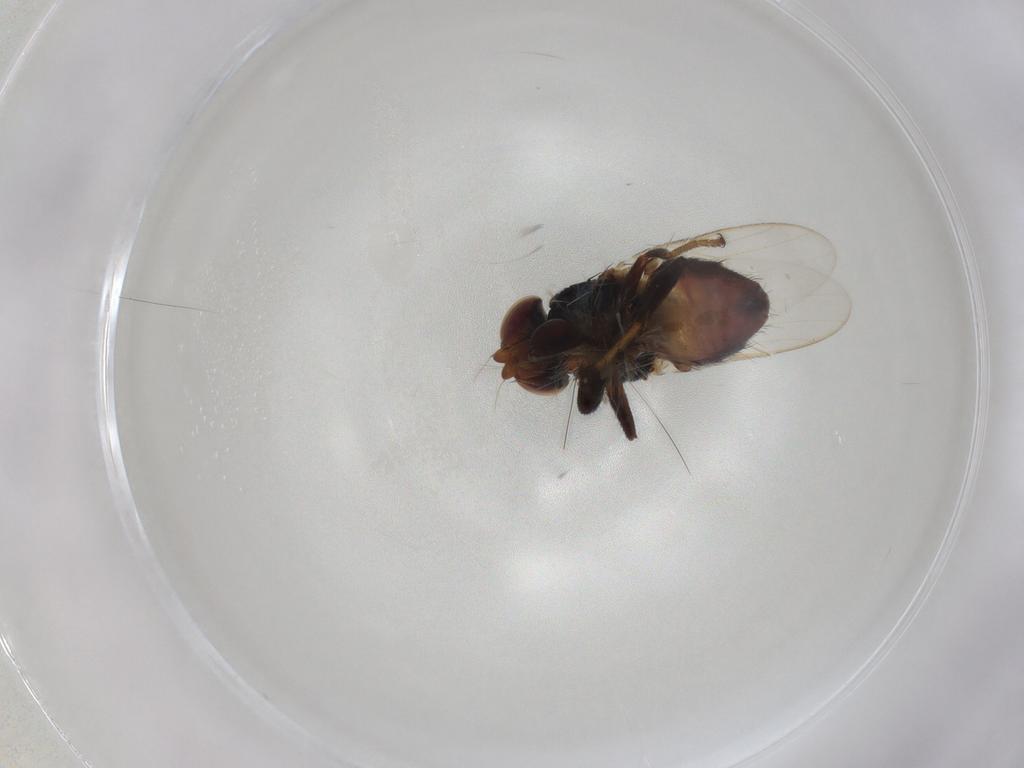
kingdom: Animalia
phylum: Arthropoda
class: Insecta
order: Diptera
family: Chloropidae
